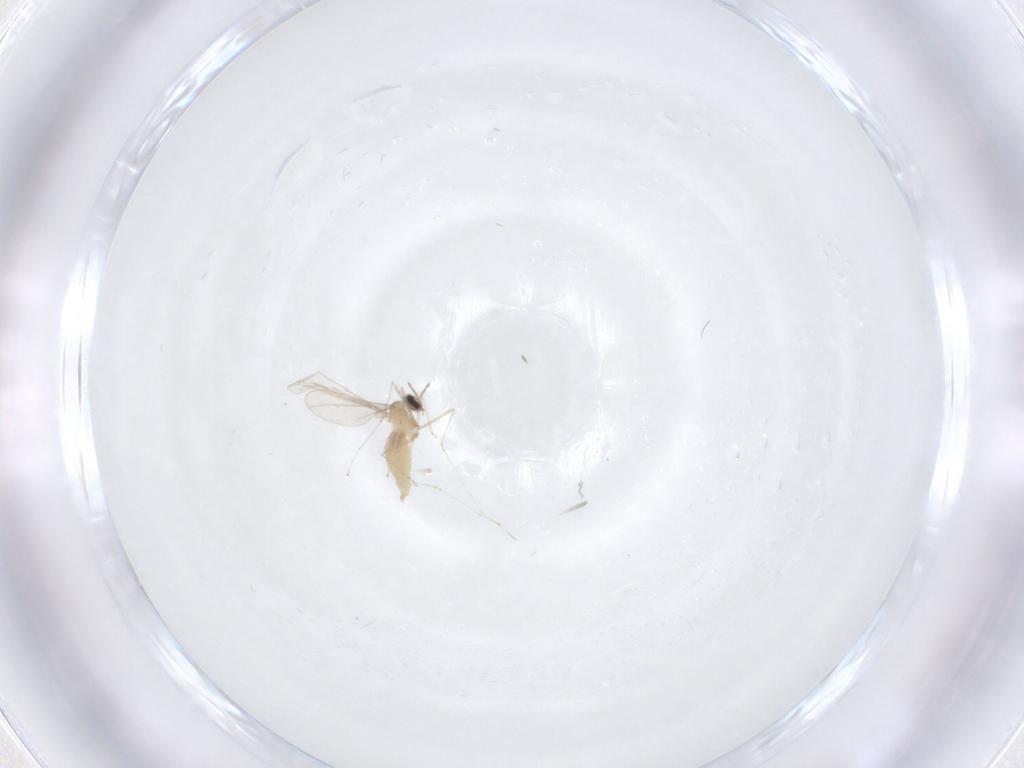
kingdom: Animalia
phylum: Arthropoda
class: Insecta
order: Diptera
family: Cecidomyiidae
